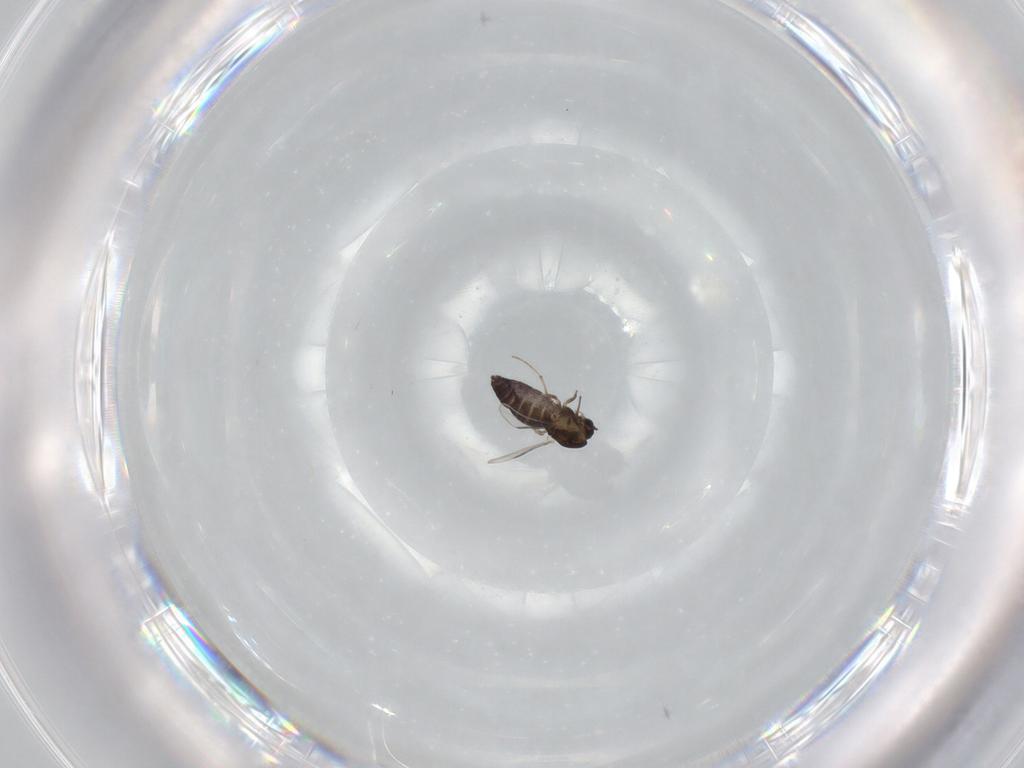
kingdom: Animalia
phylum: Arthropoda
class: Insecta
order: Diptera
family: Chironomidae
